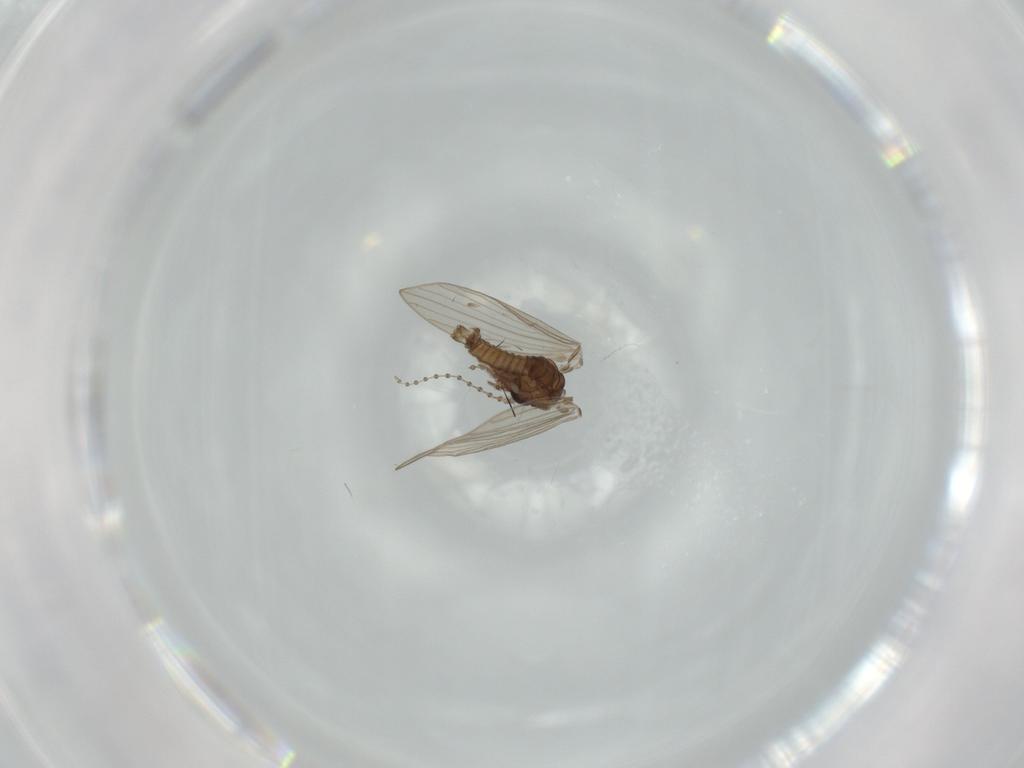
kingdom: Animalia
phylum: Arthropoda
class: Insecta
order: Diptera
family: Psychodidae
